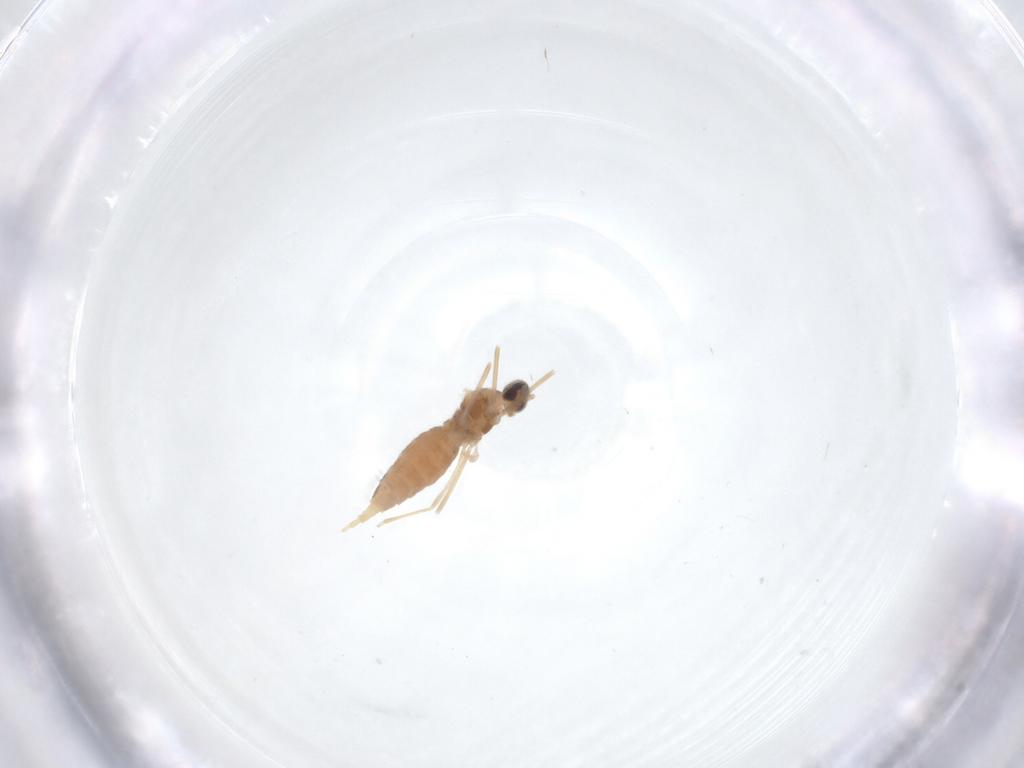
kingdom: Animalia
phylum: Arthropoda
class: Insecta
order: Diptera
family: Cecidomyiidae
